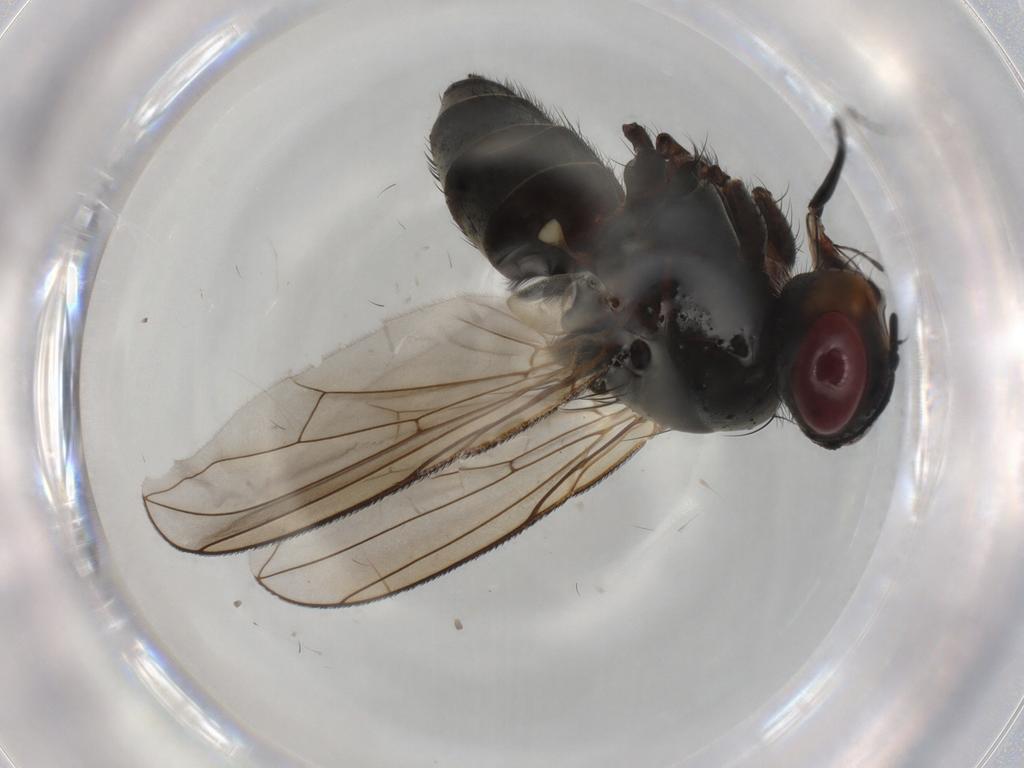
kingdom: Animalia
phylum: Arthropoda
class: Insecta
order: Diptera
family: Tachinidae
